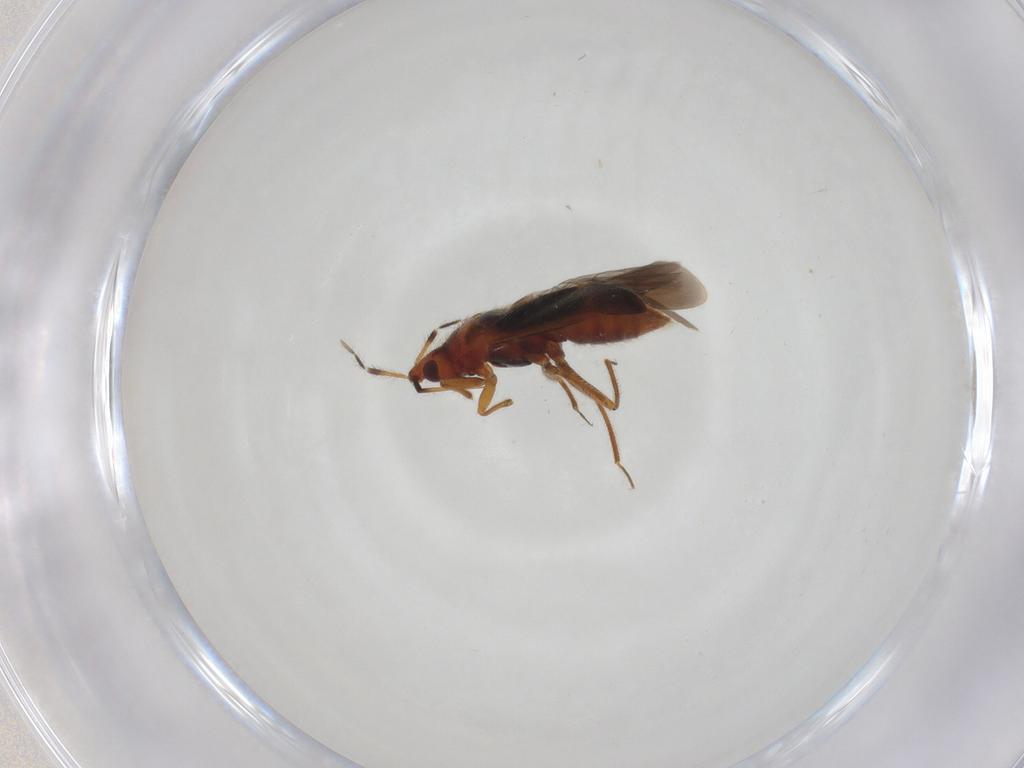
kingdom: Animalia
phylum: Arthropoda
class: Insecta
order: Hemiptera
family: Anthocoridae
